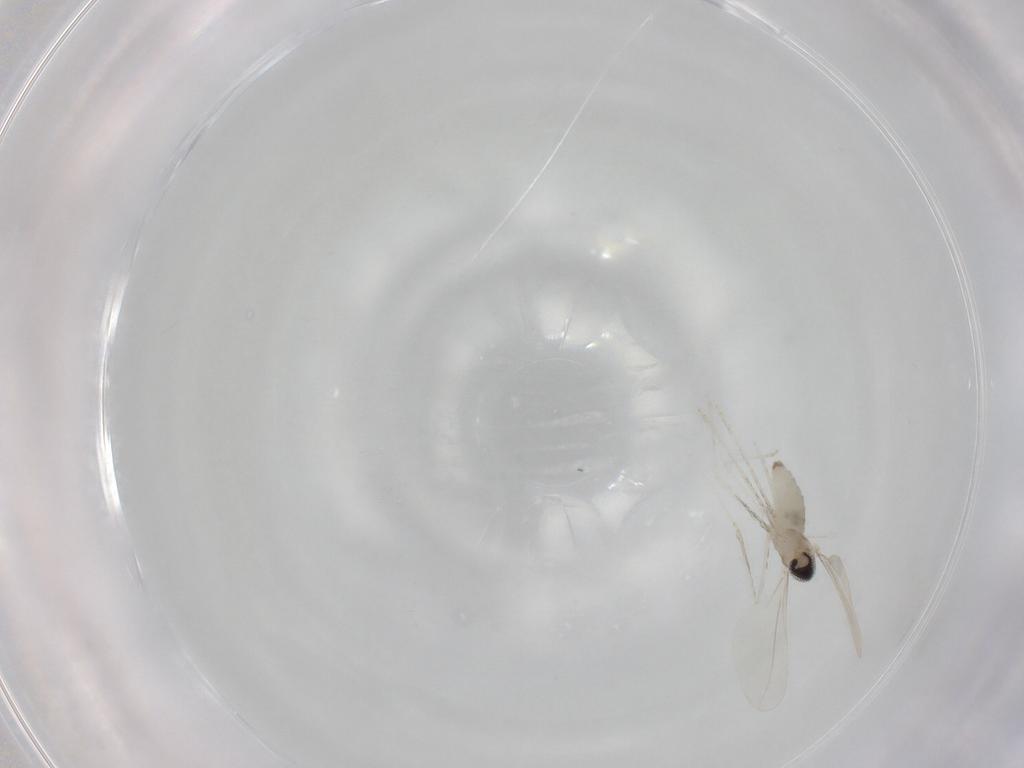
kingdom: Animalia
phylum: Arthropoda
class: Insecta
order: Diptera
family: Cecidomyiidae
